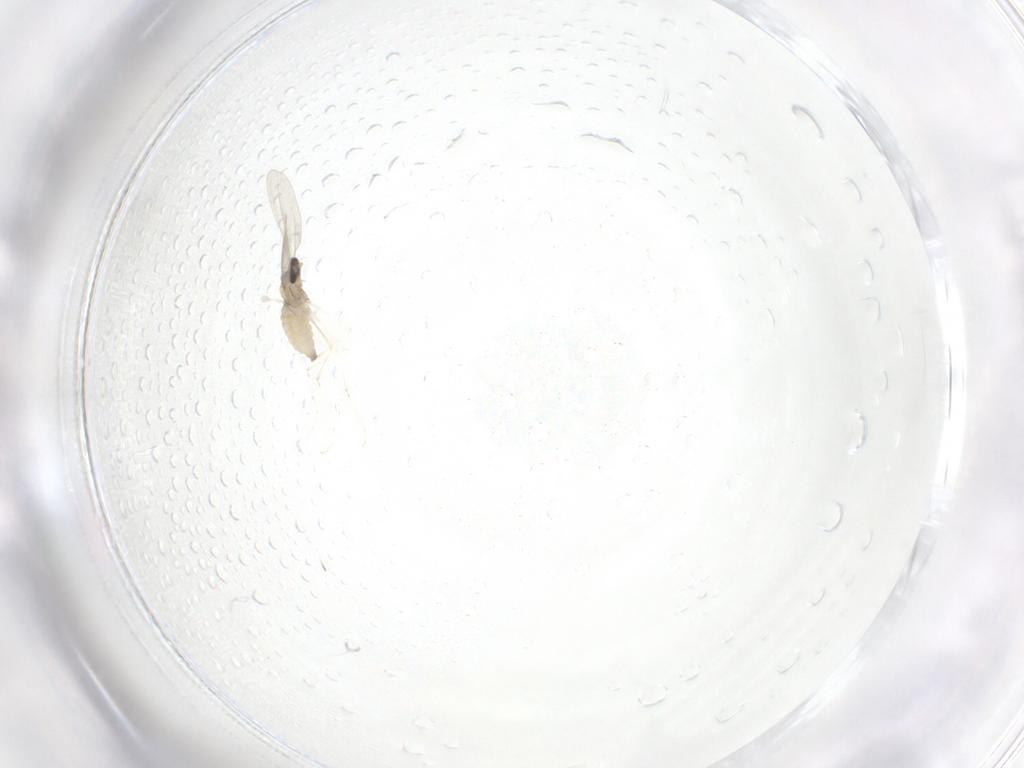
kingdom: Animalia
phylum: Arthropoda
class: Insecta
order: Diptera
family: Cecidomyiidae
